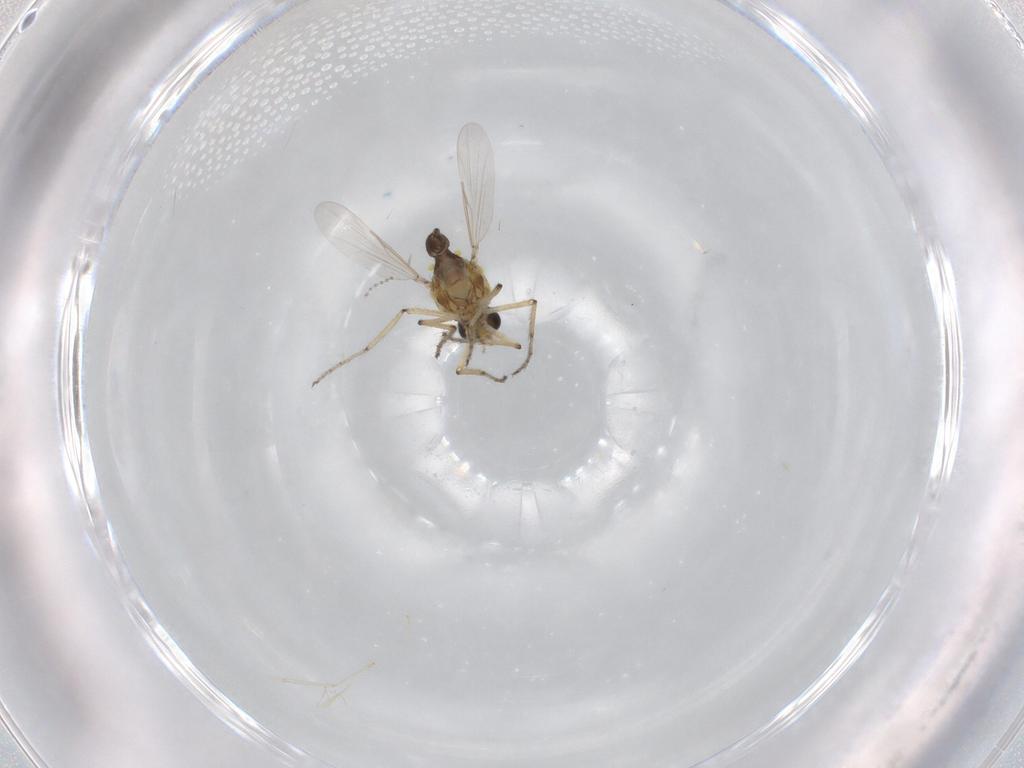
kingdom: Animalia
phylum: Arthropoda
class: Insecta
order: Diptera
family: Ceratopogonidae
